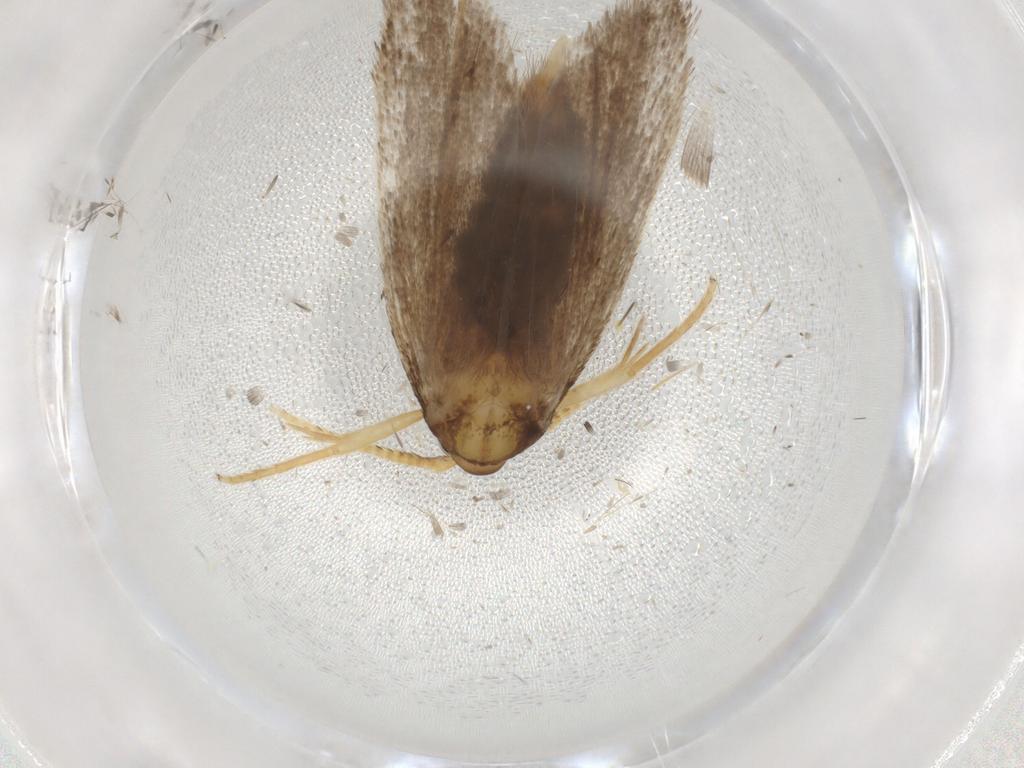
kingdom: Animalia
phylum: Arthropoda
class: Insecta
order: Lepidoptera
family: Lecithoceridae
